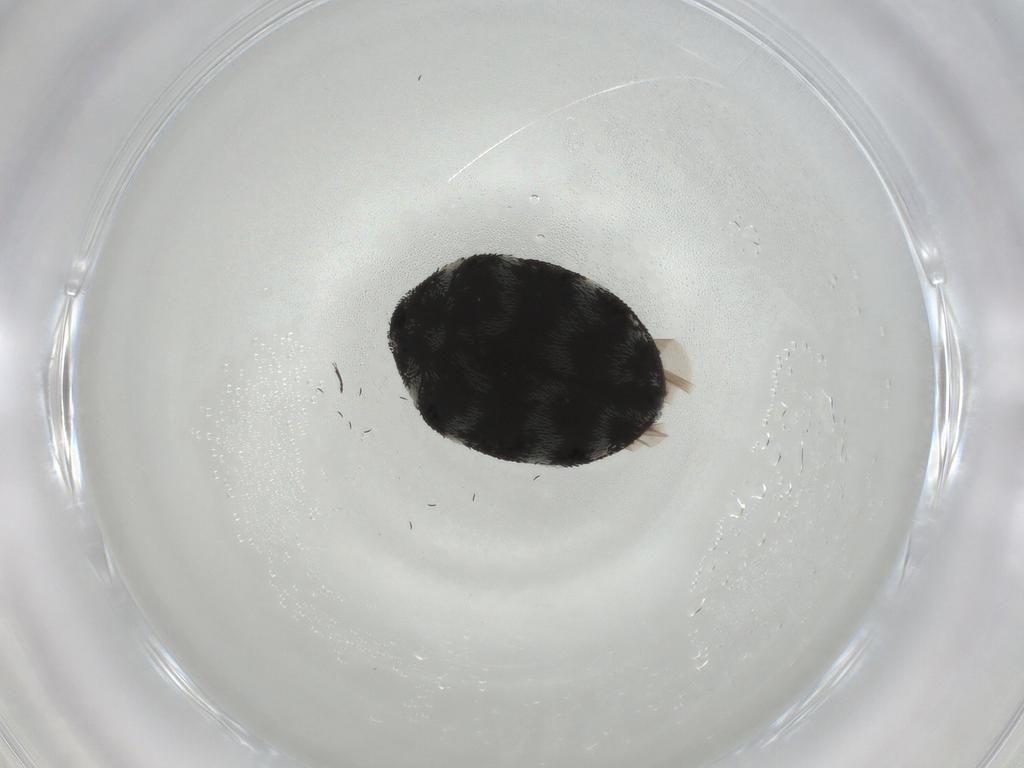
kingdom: Animalia
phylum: Arthropoda
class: Insecta
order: Coleoptera
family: Dermestidae
